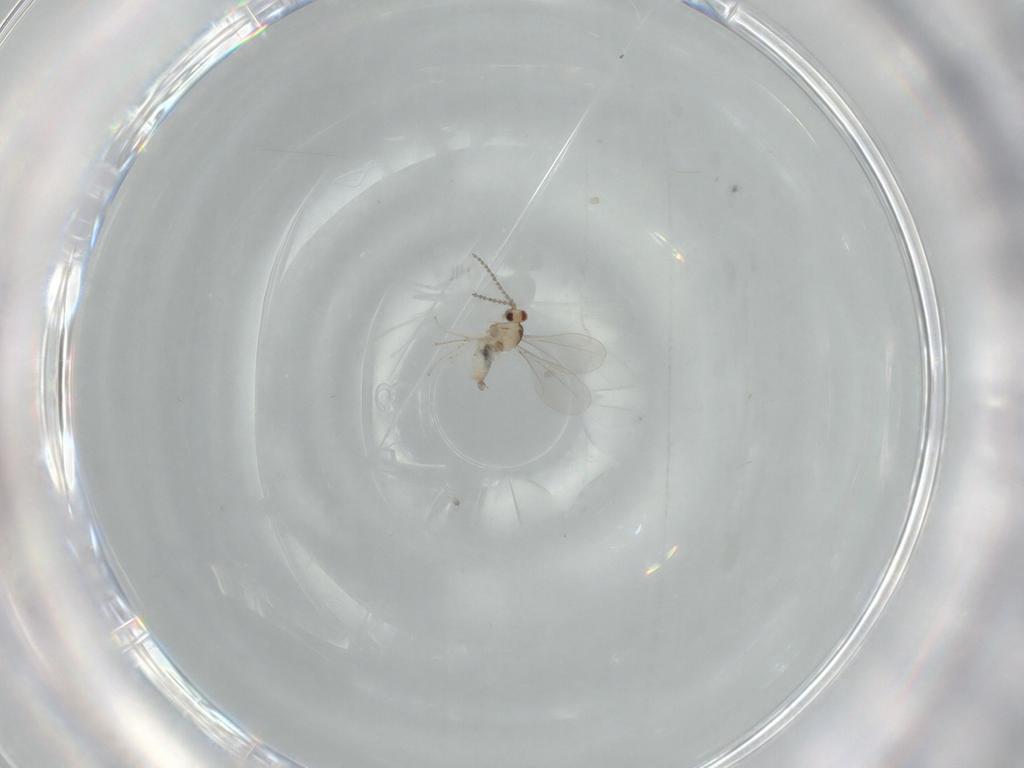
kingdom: Animalia
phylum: Arthropoda
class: Insecta
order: Diptera
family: Cecidomyiidae
